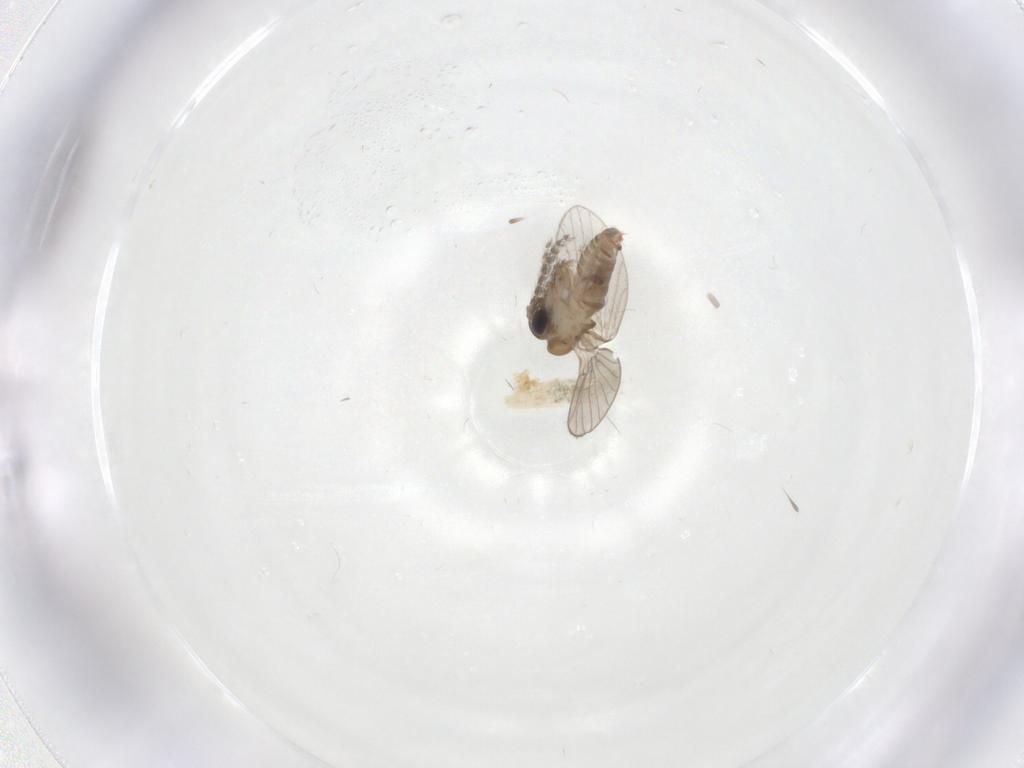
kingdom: Animalia
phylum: Arthropoda
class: Insecta
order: Diptera
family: Psychodidae
